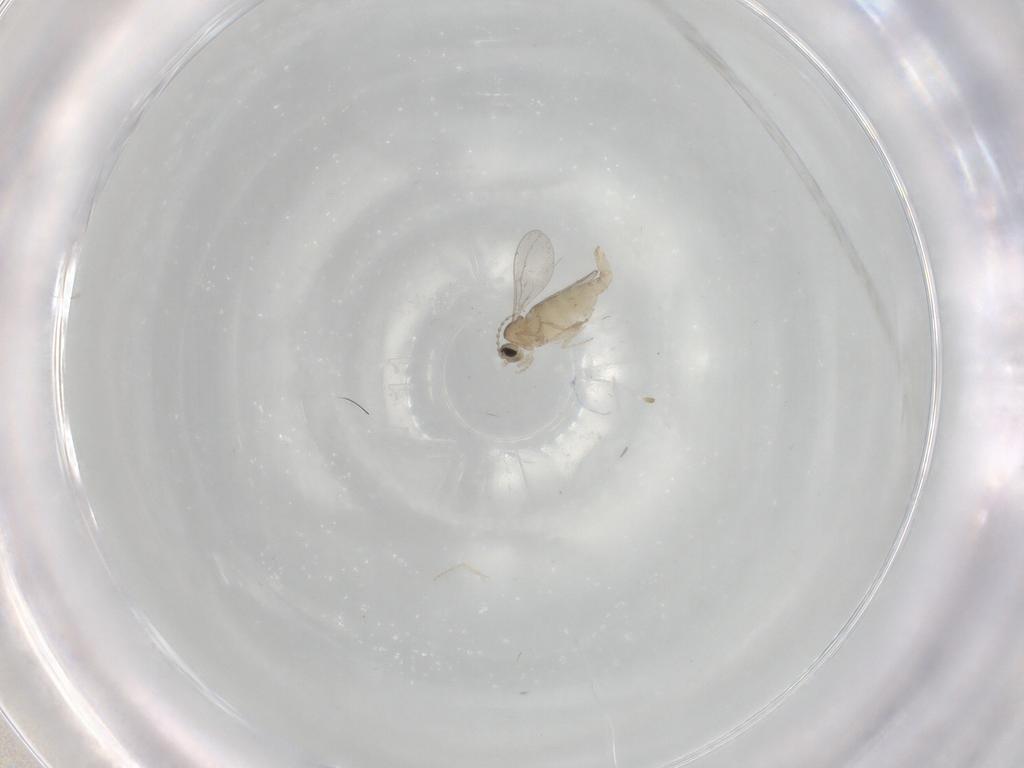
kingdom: Animalia
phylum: Arthropoda
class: Insecta
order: Diptera
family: Cecidomyiidae
